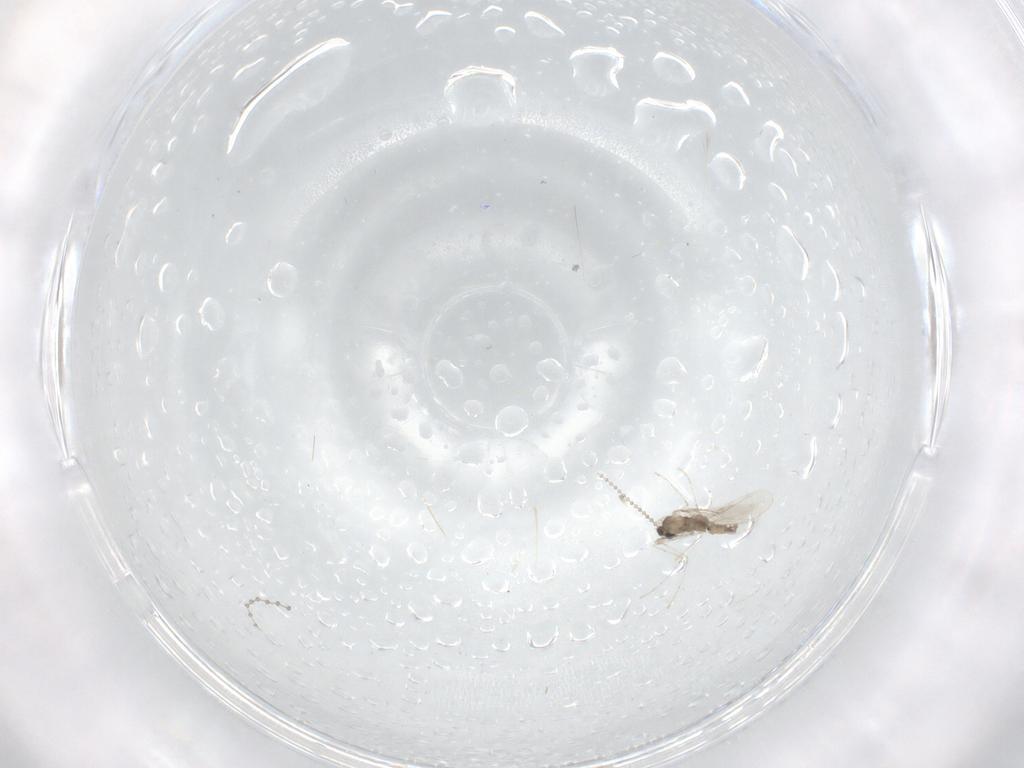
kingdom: Animalia
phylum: Arthropoda
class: Insecta
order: Diptera
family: Cecidomyiidae
